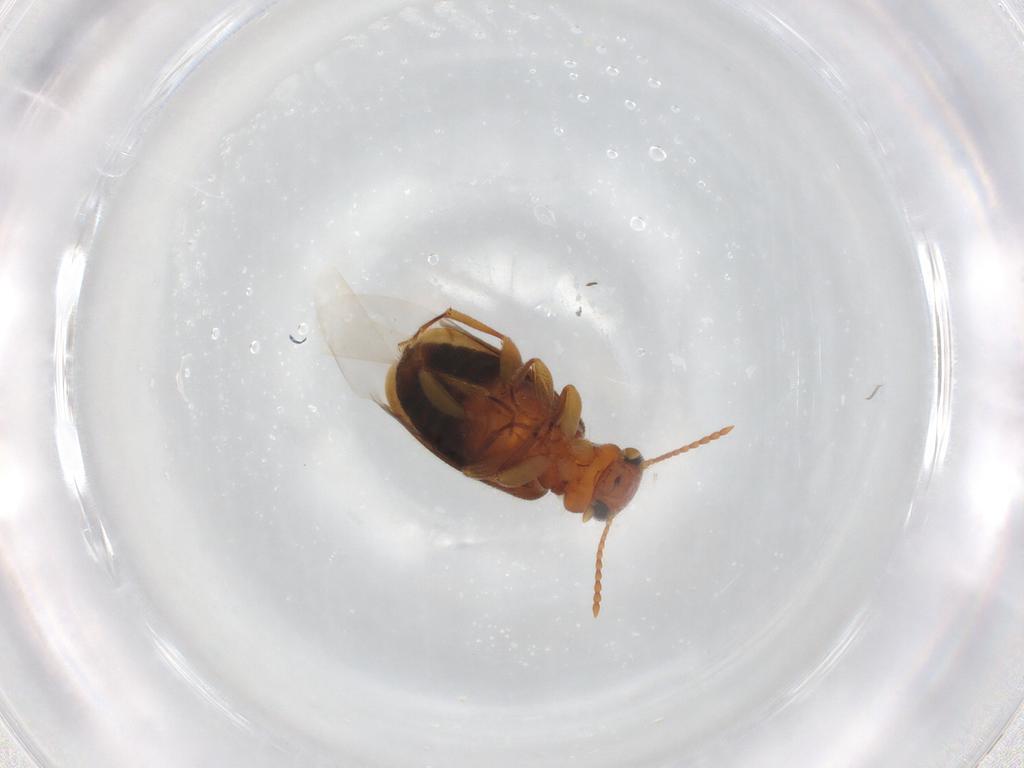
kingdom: Animalia
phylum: Arthropoda
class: Insecta
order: Coleoptera
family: Anthicidae
